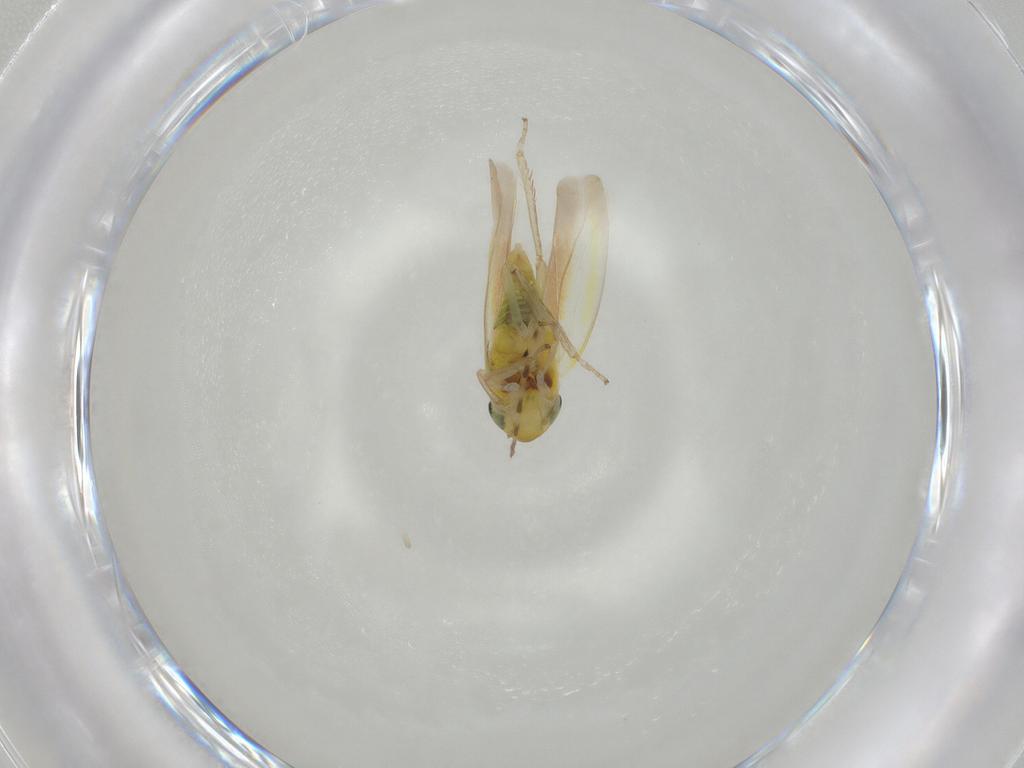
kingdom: Animalia
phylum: Arthropoda
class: Insecta
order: Hemiptera
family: Cicadellidae
